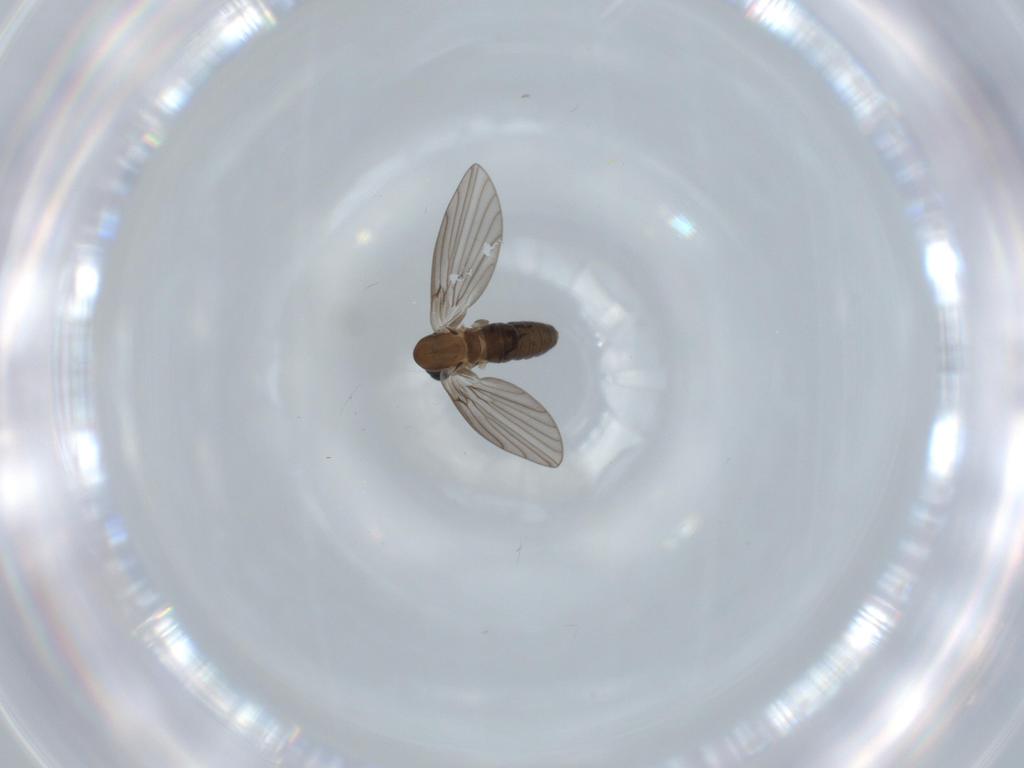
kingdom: Animalia
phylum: Arthropoda
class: Insecta
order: Diptera
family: Psychodidae
